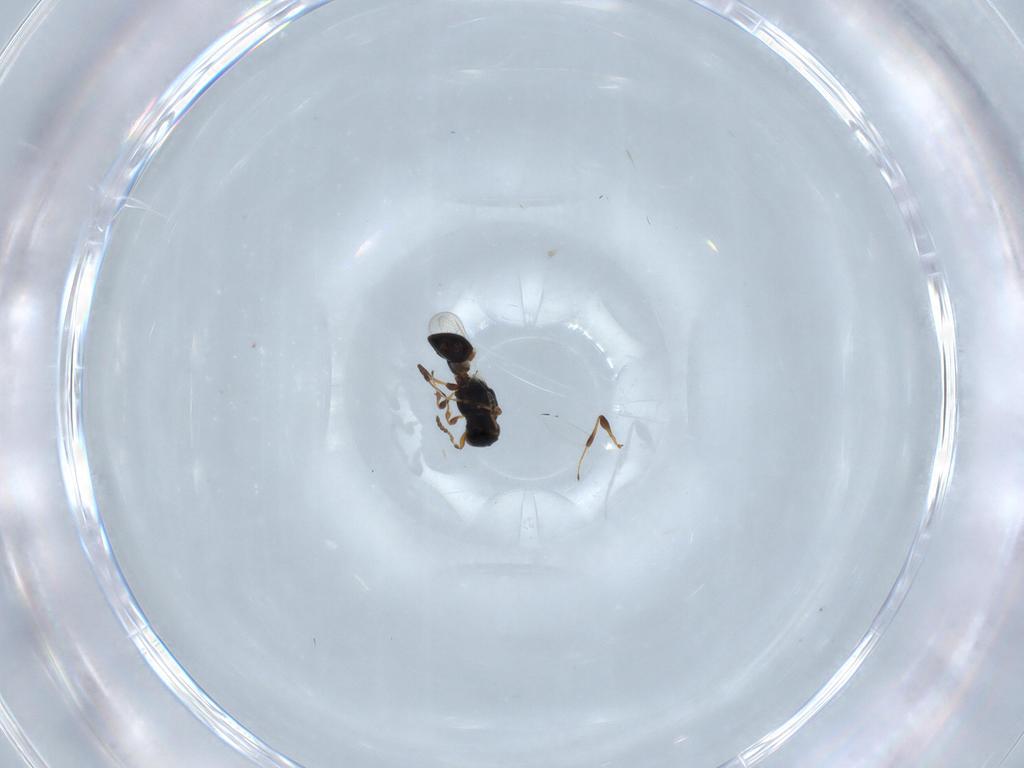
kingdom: Animalia
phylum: Arthropoda
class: Insecta
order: Hymenoptera
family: Platygastridae
